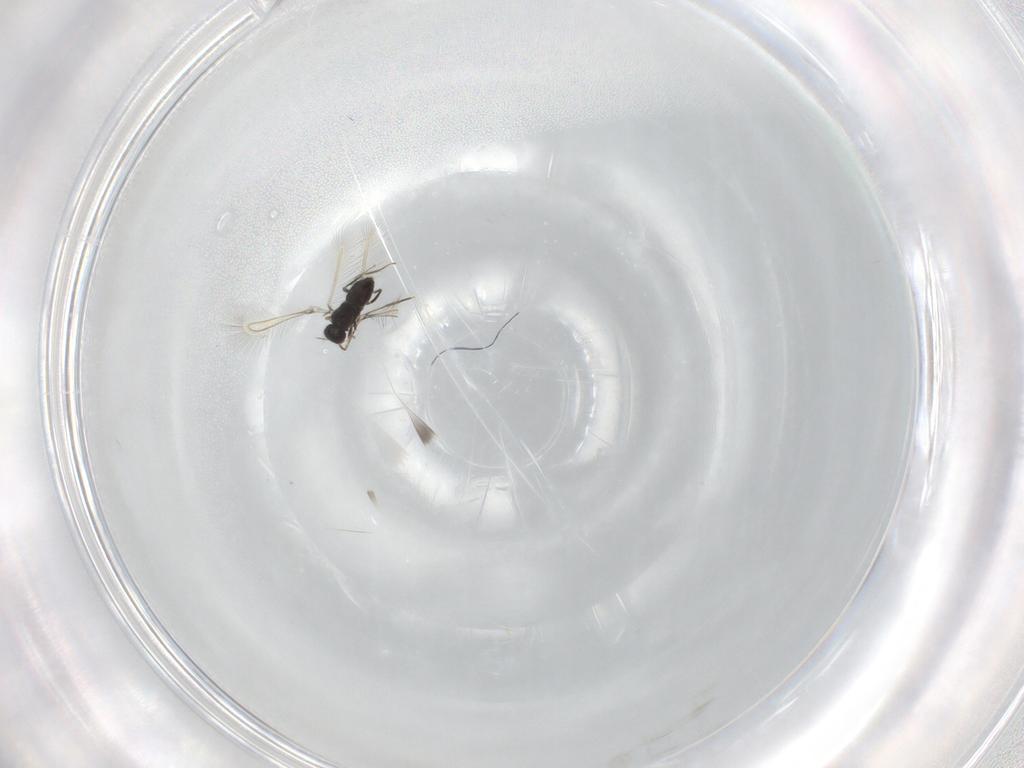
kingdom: Animalia
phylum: Arthropoda
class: Insecta
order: Hymenoptera
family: Mymaridae
